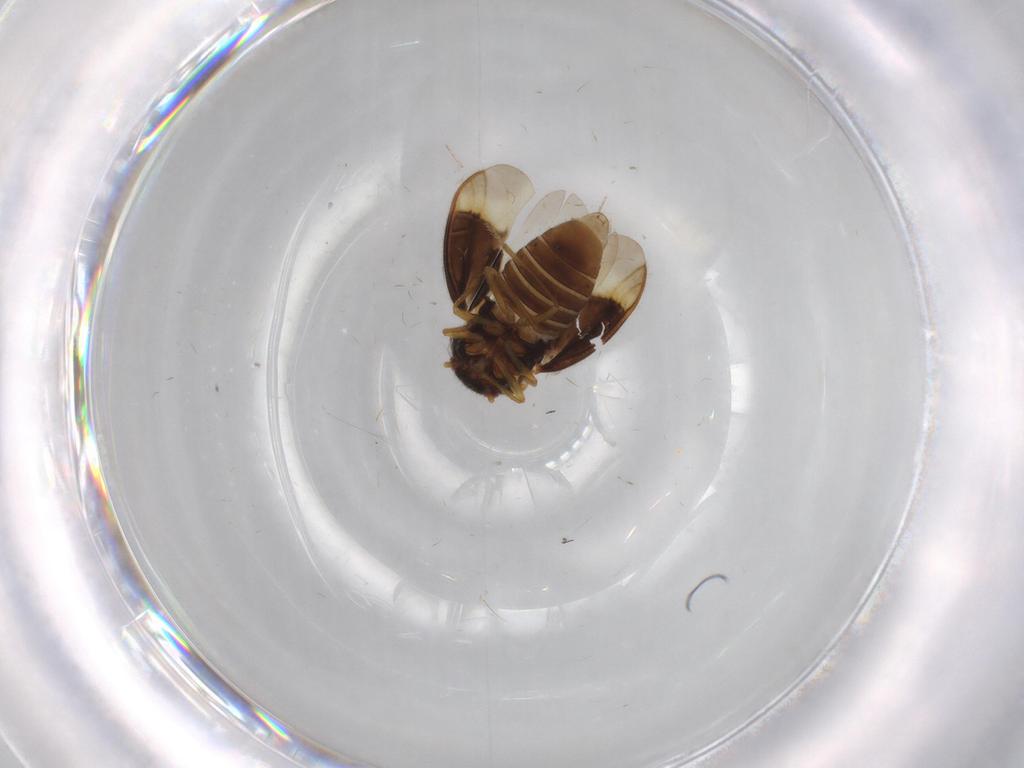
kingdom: Animalia
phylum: Arthropoda
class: Insecta
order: Hemiptera
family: Schizopteridae
